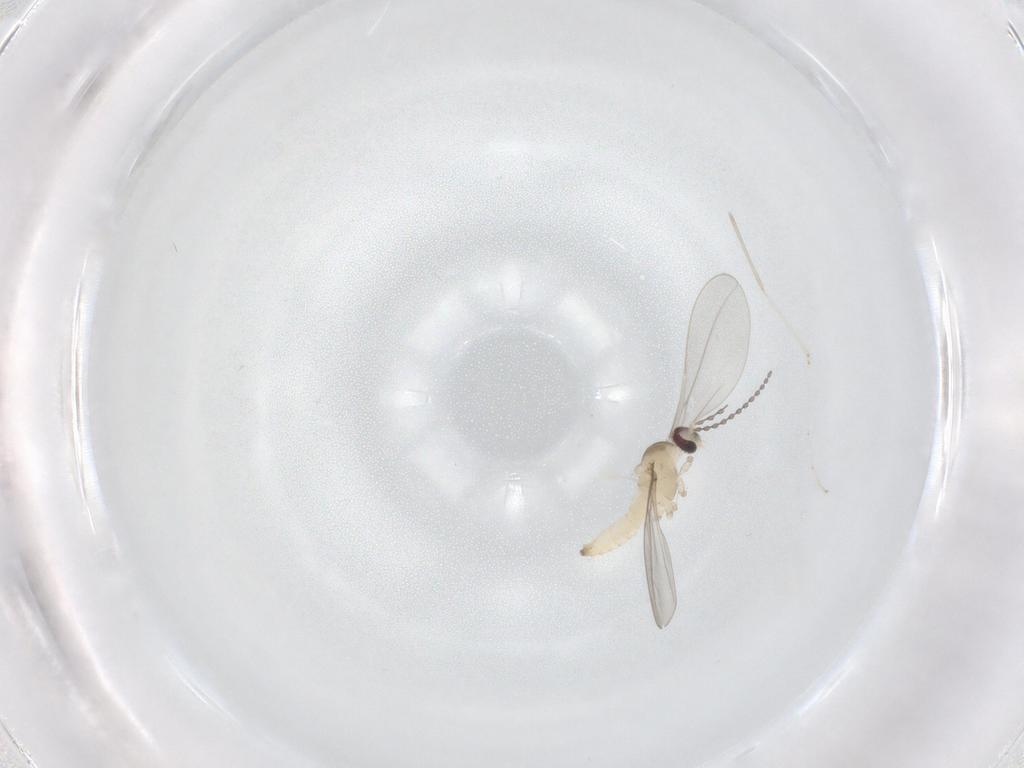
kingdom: Animalia
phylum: Arthropoda
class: Insecta
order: Diptera
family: Cecidomyiidae
